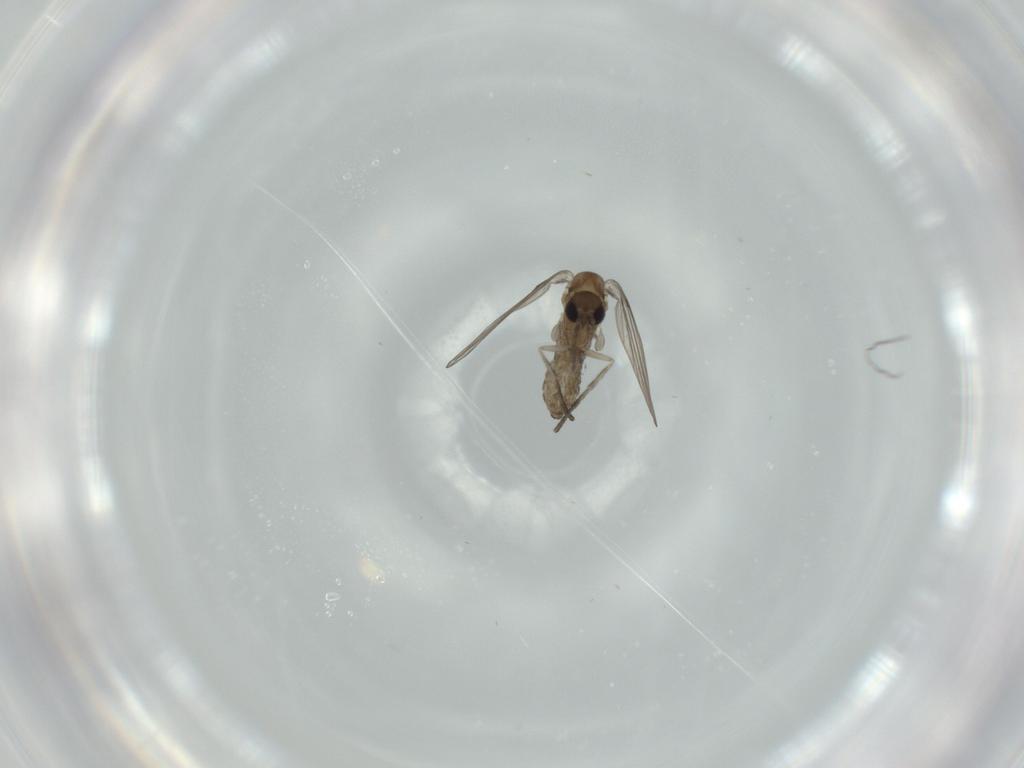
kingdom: Animalia
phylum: Arthropoda
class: Insecta
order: Diptera
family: Psychodidae
